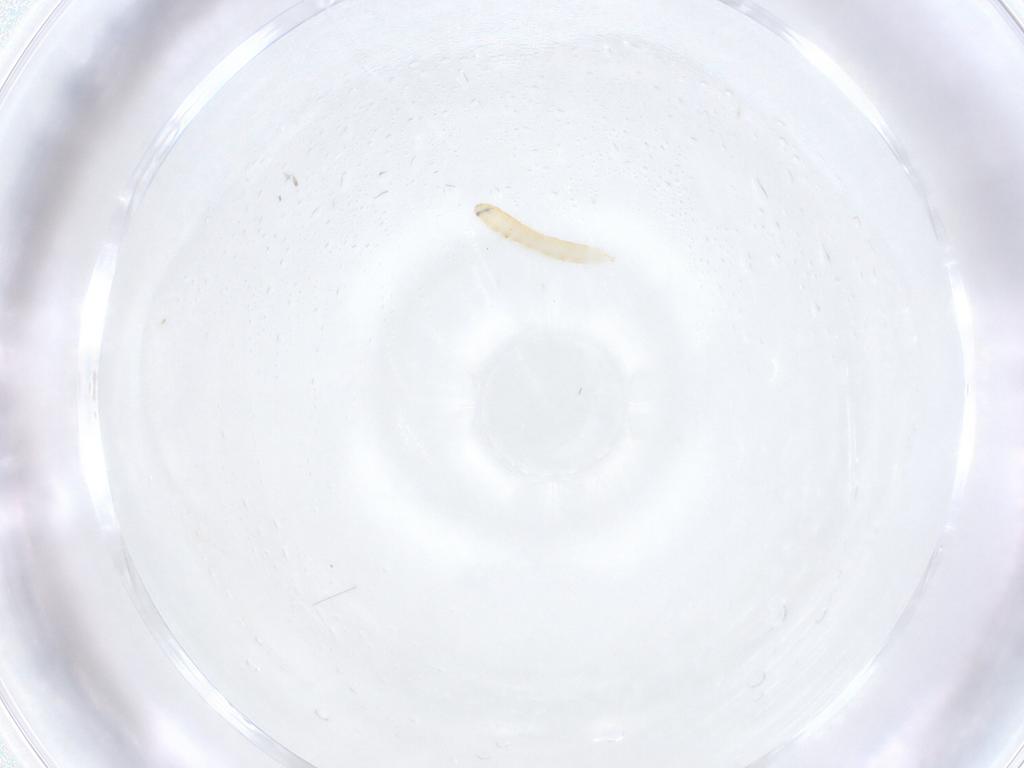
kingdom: Animalia
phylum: Arthropoda
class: Insecta
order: Diptera
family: Tachinidae
